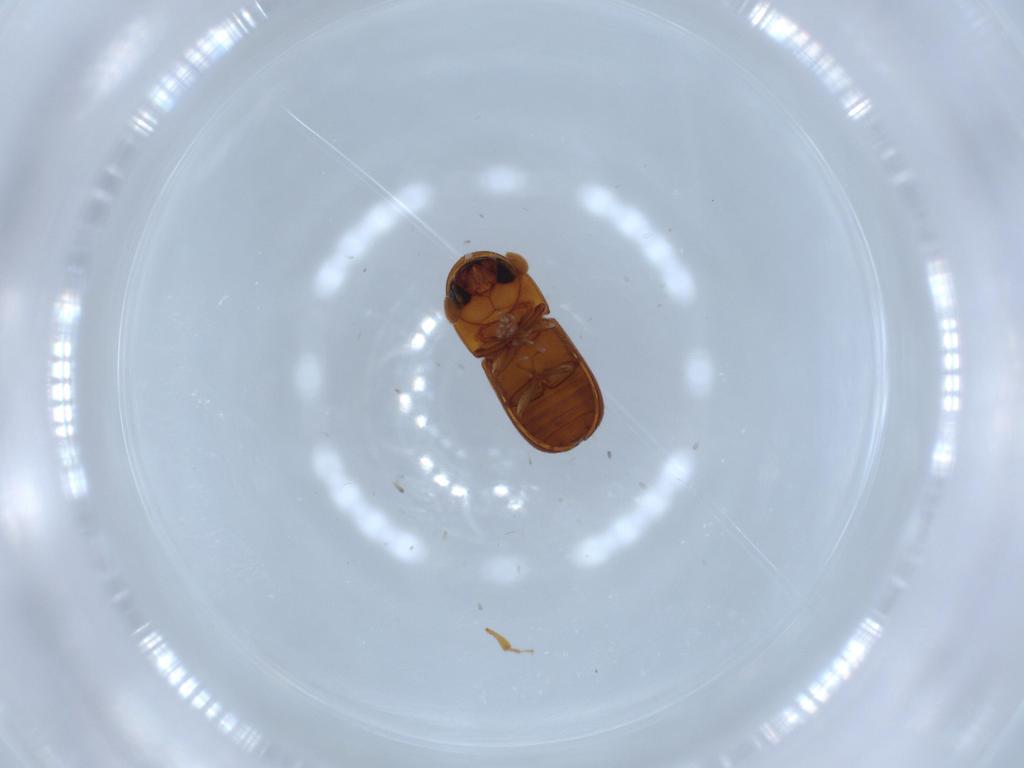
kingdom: Animalia
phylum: Arthropoda
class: Insecta
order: Coleoptera
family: Curculionidae
